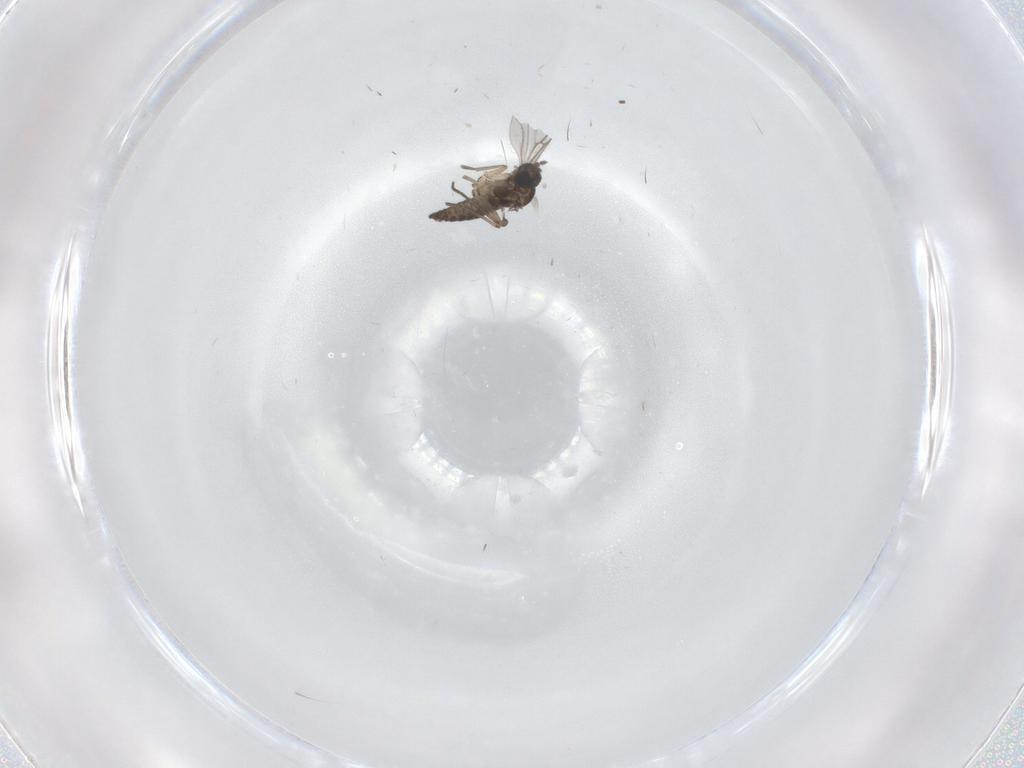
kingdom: Animalia
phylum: Arthropoda
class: Insecta
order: Diptera
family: Sciaridae
